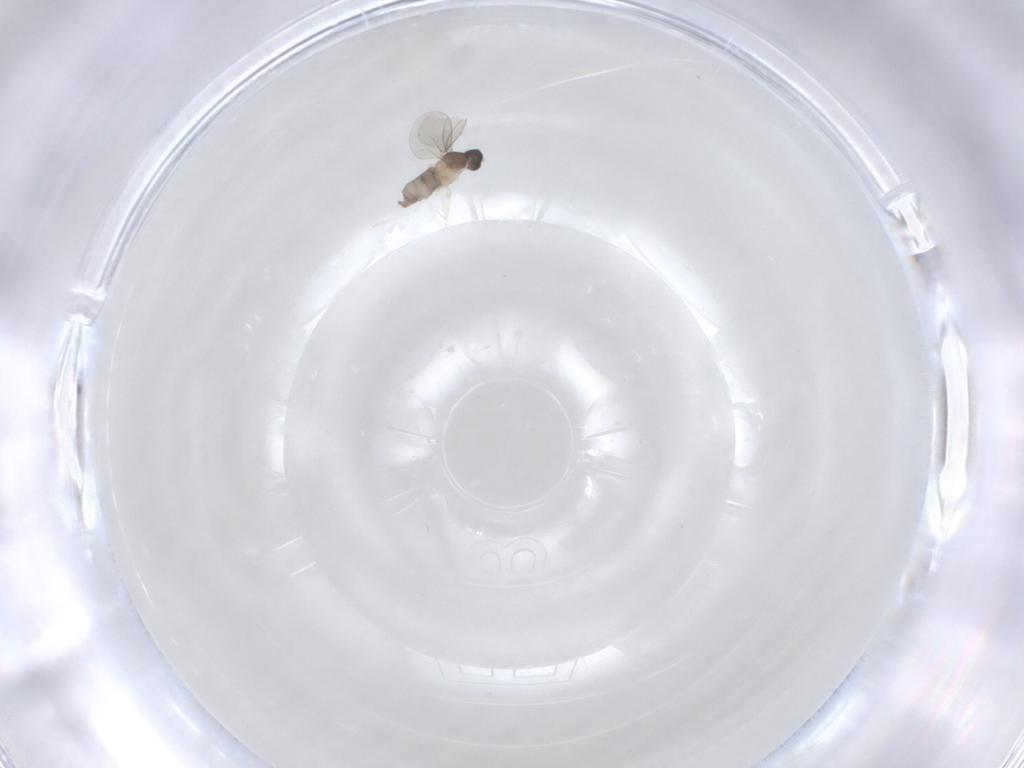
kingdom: Animalia
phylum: Arthropoda
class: Insecta
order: Diptera
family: Cecidomyiidae
